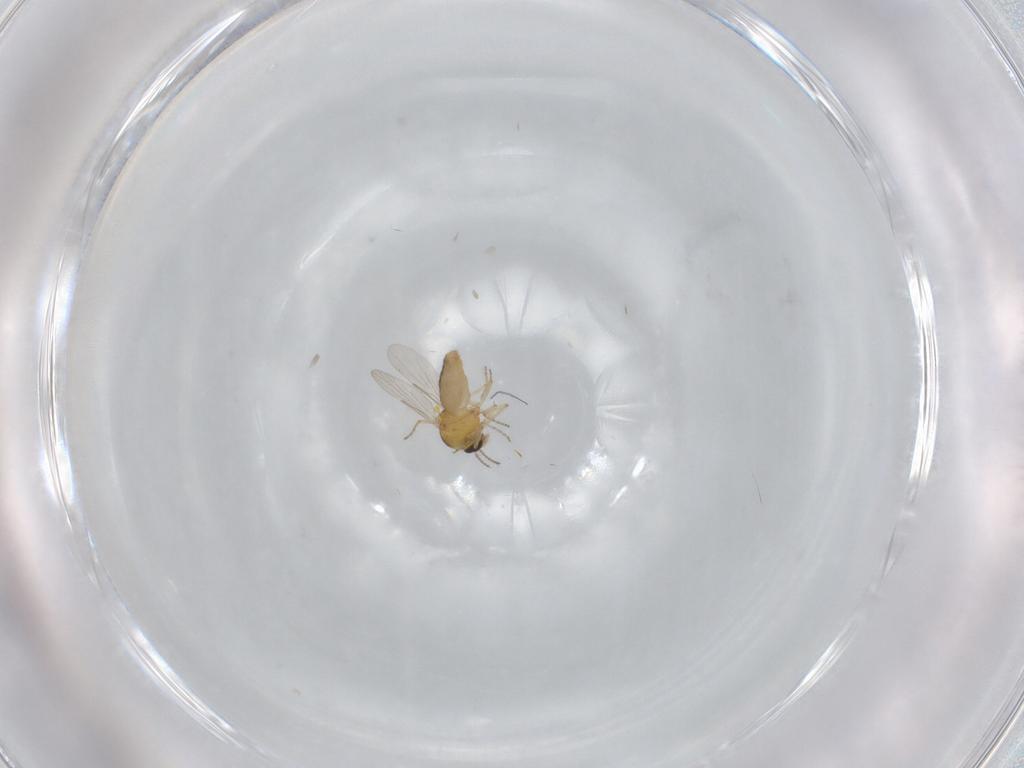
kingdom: Animalia
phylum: Arthropoda
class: Insecta
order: Diptera
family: Ceratopogonidae
